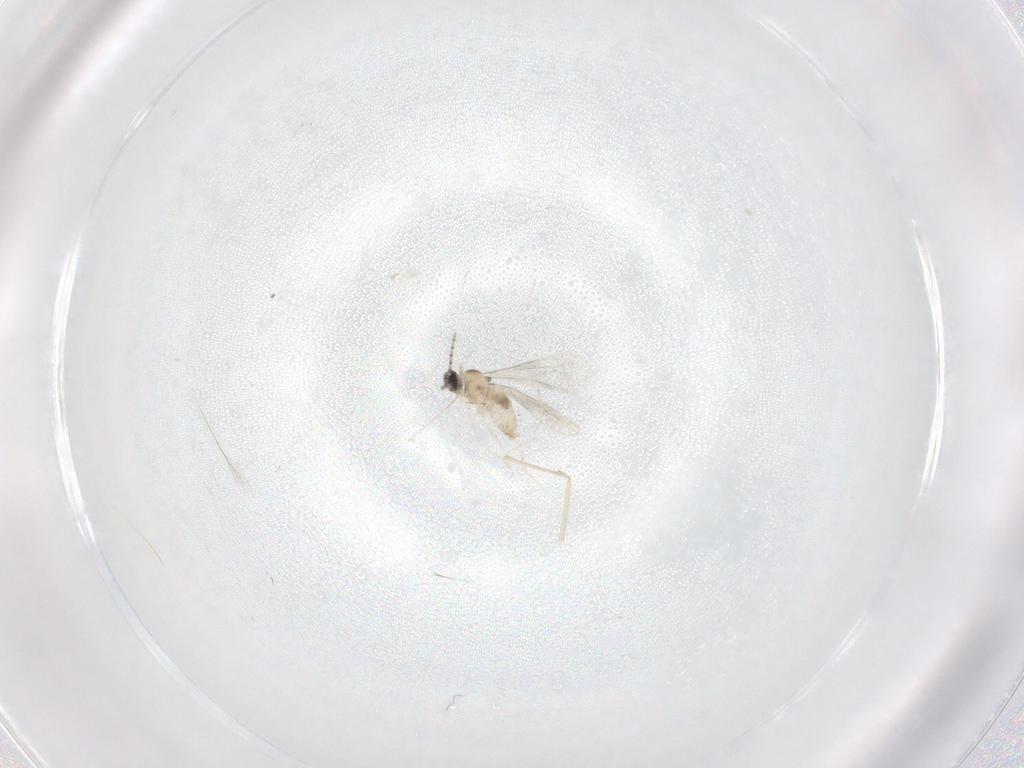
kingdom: Animalia
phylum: Arthropoda
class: Insecta
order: Diptera
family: Cecidomyiidae
